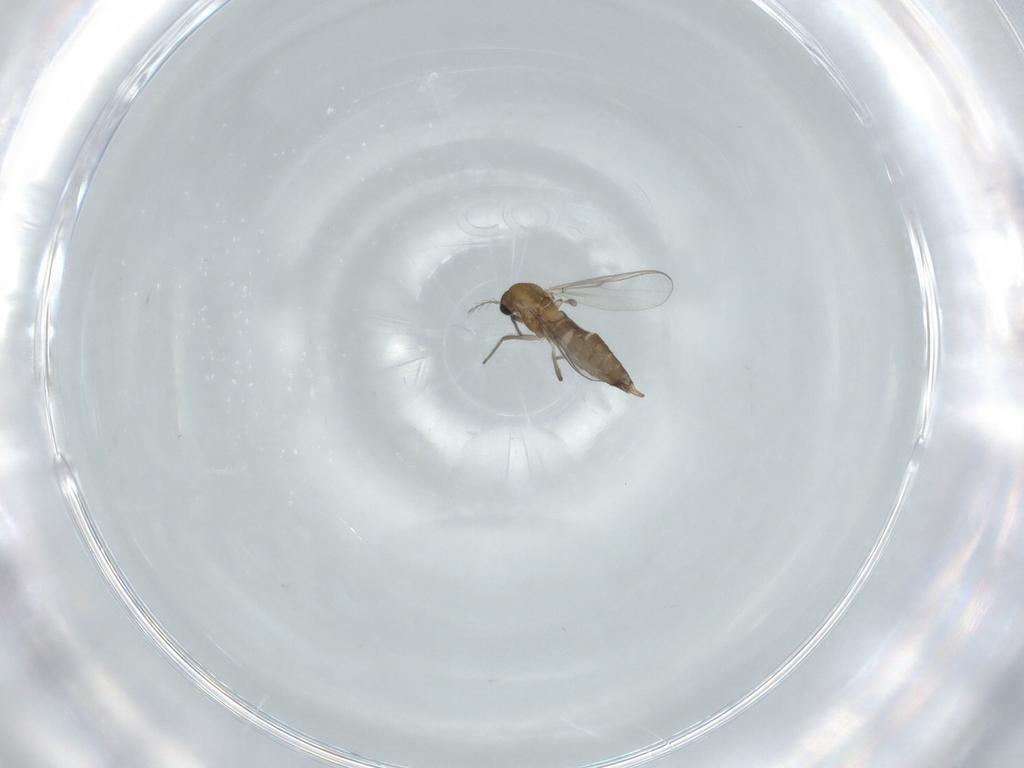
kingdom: Animalia
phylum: Arthropoda
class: Insecta
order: Diptera
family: Chironomidae
